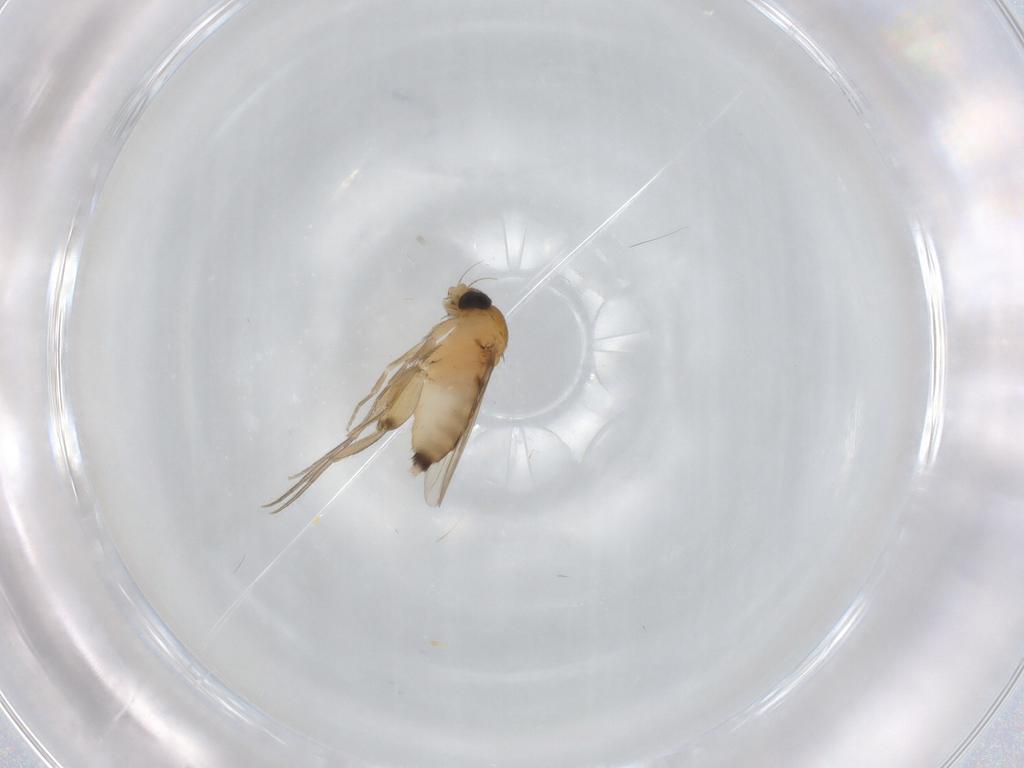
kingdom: Animalia
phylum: Arthropoda
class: Insecta
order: Diptera
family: Phoridae
